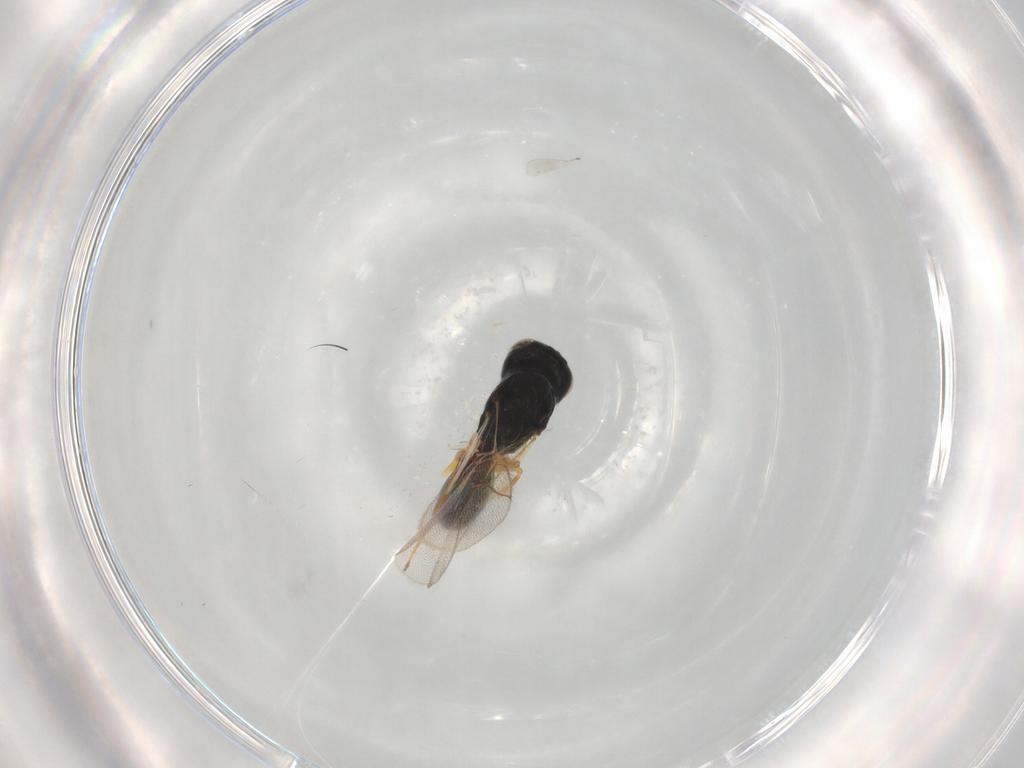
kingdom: Animalia
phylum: Arthropoda
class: Insecta
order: Hymenoptera
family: Figitidae
